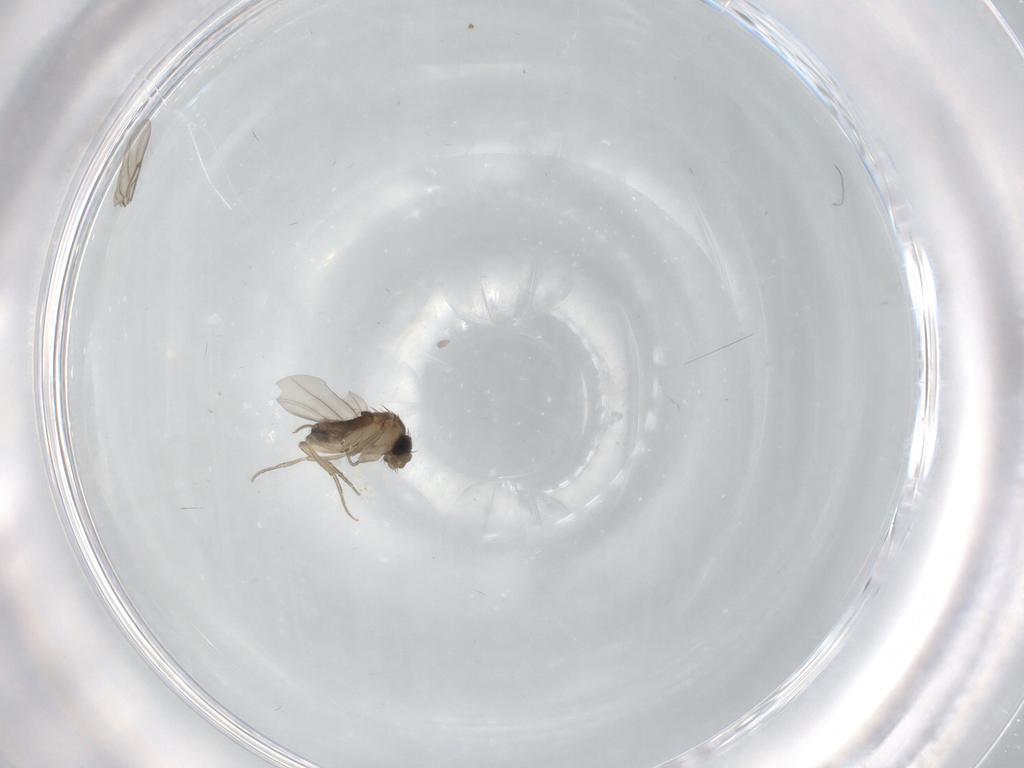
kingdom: Animalia
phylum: Arthropoda
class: Insecta
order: Diptera
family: Phoridae
